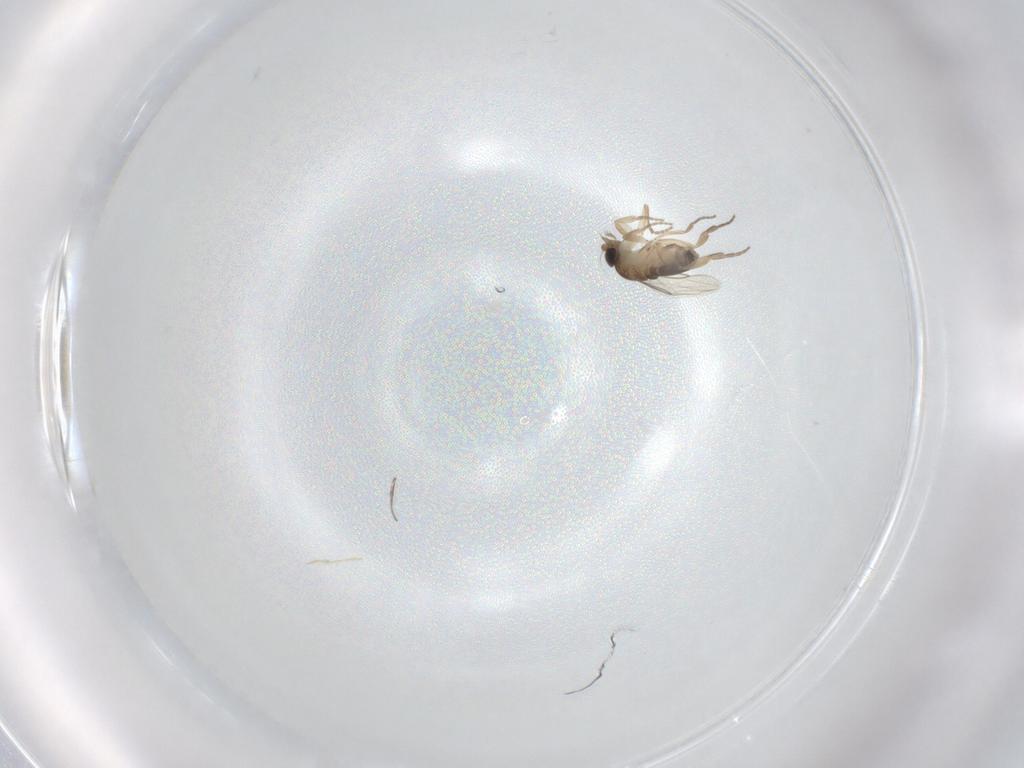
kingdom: Animalia
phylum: Arthropoda
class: Insecta
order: Diptera
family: Phoridae
